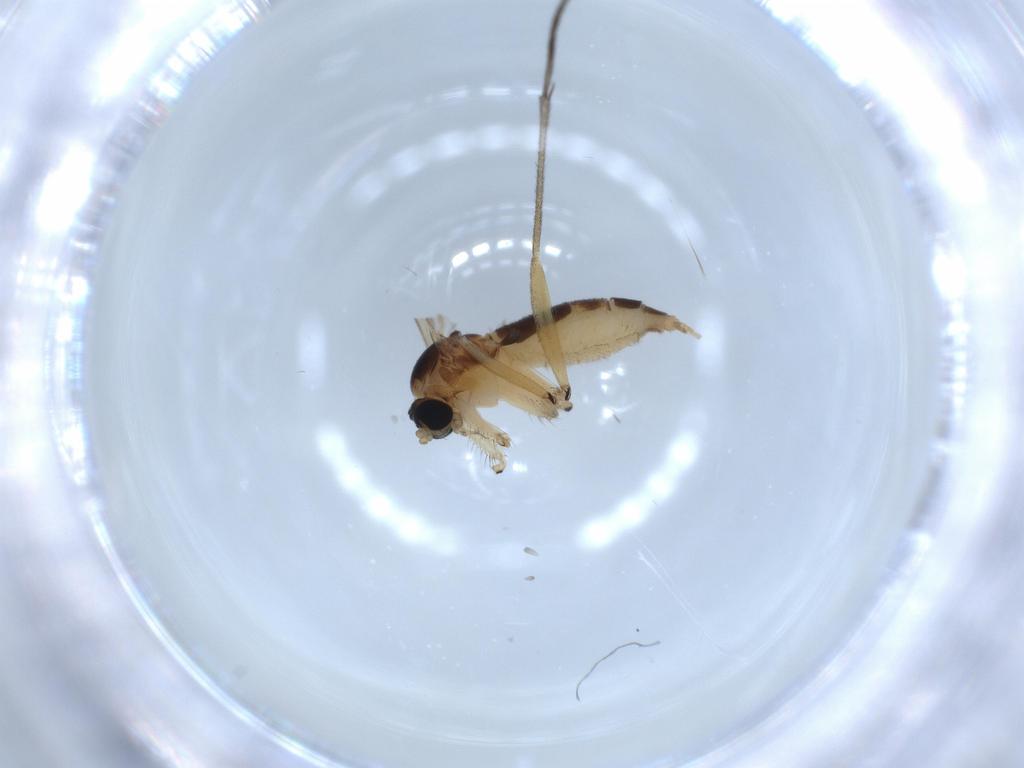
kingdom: Animalia
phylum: Arthropoda
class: Insecta
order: Diptera
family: Sciaridae
